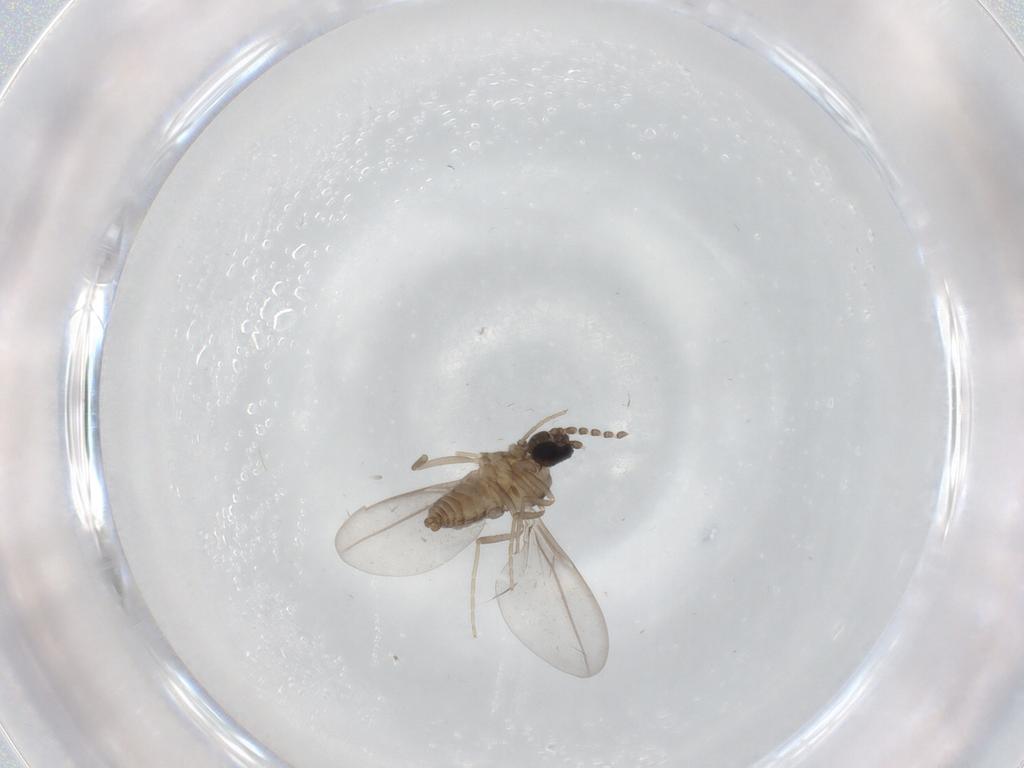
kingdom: Animalia
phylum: Arthropoda
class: Insecta
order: Diptera
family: Cecidomyiidae
